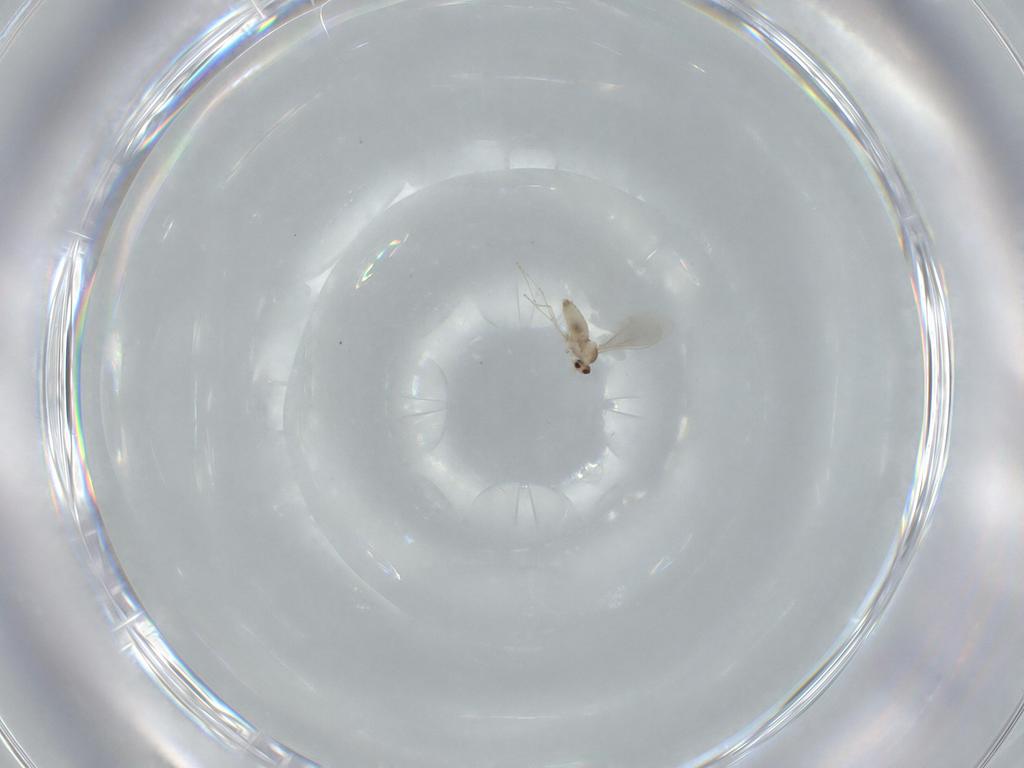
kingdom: Animalia
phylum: Arthropoda
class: Insecta
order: Diptera
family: Cecidomyiidae
